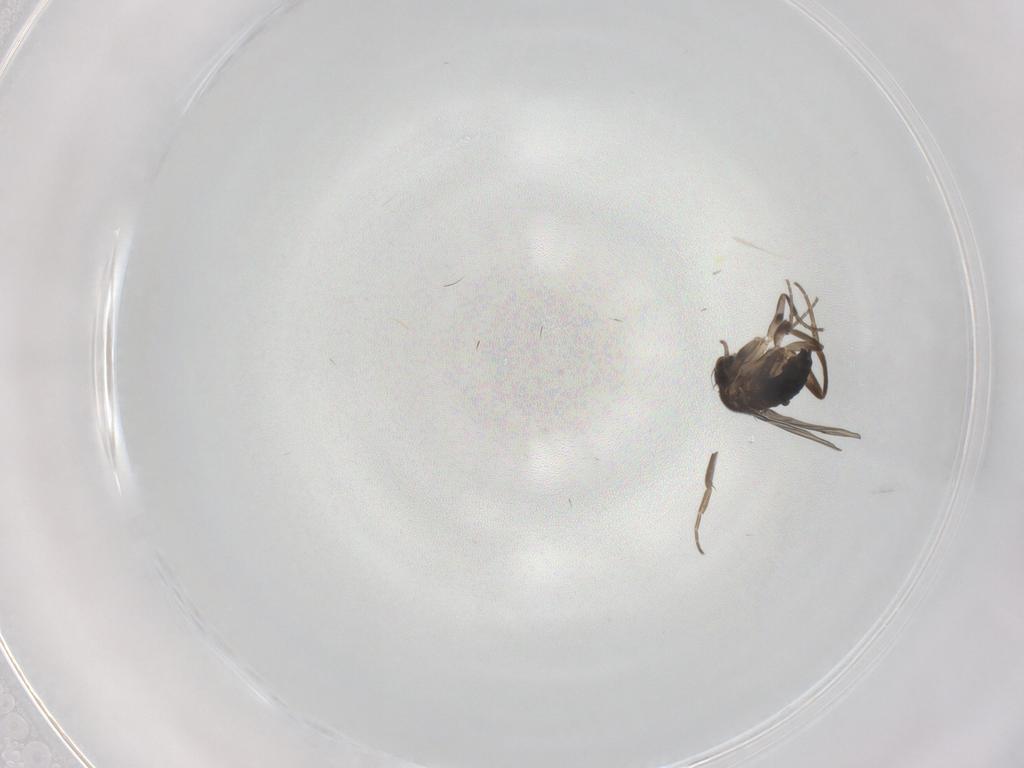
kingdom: Animalia
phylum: Arthropoda
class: Insecta
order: Diptera
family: Phoridae
